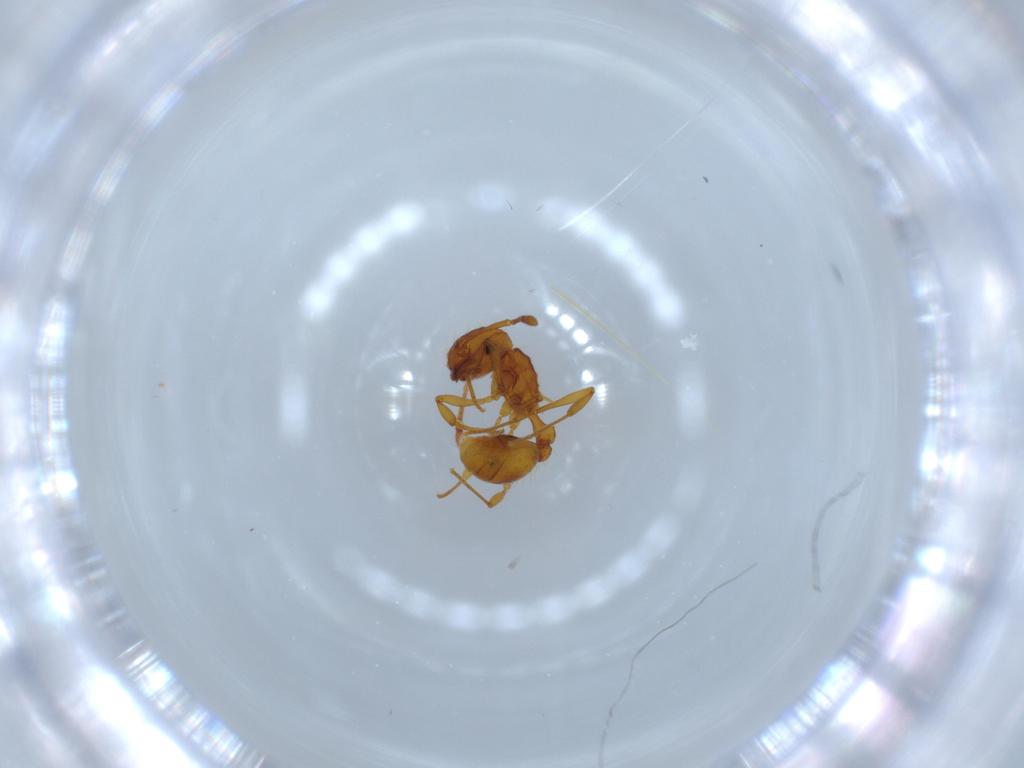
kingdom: Animalia
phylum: Arthropoda
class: Insecta
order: Hymenoptera
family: Formicidae
